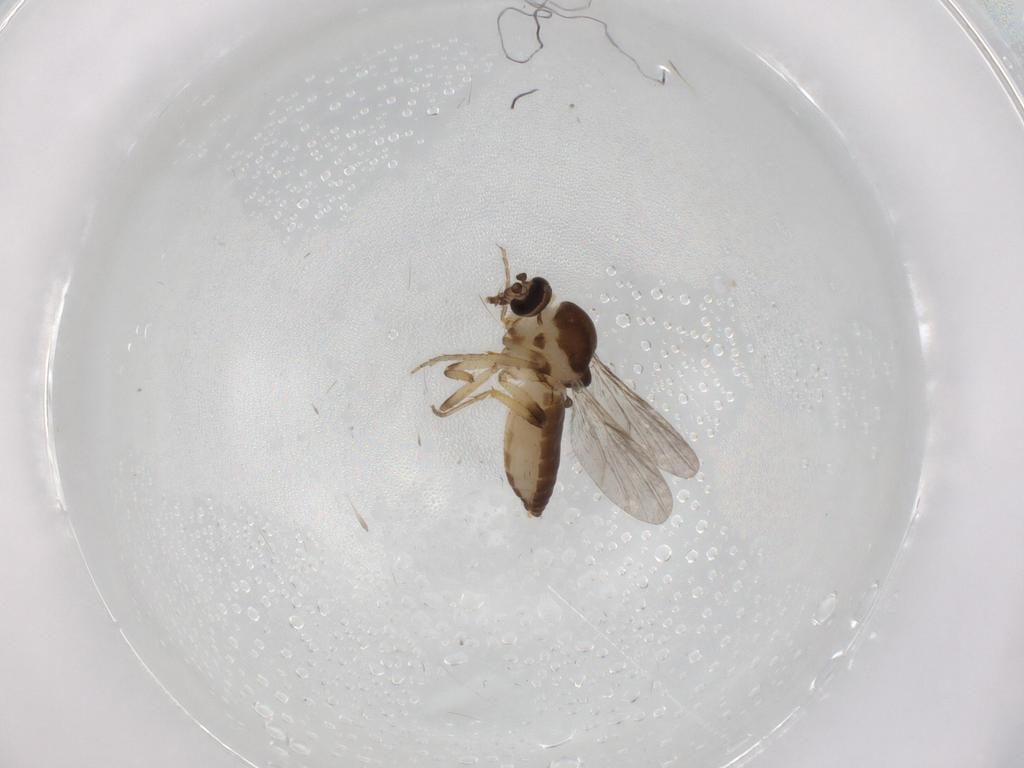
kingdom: Animalia
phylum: Arthropoda
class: Insecta
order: Diptera
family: Ceratopogonidae
